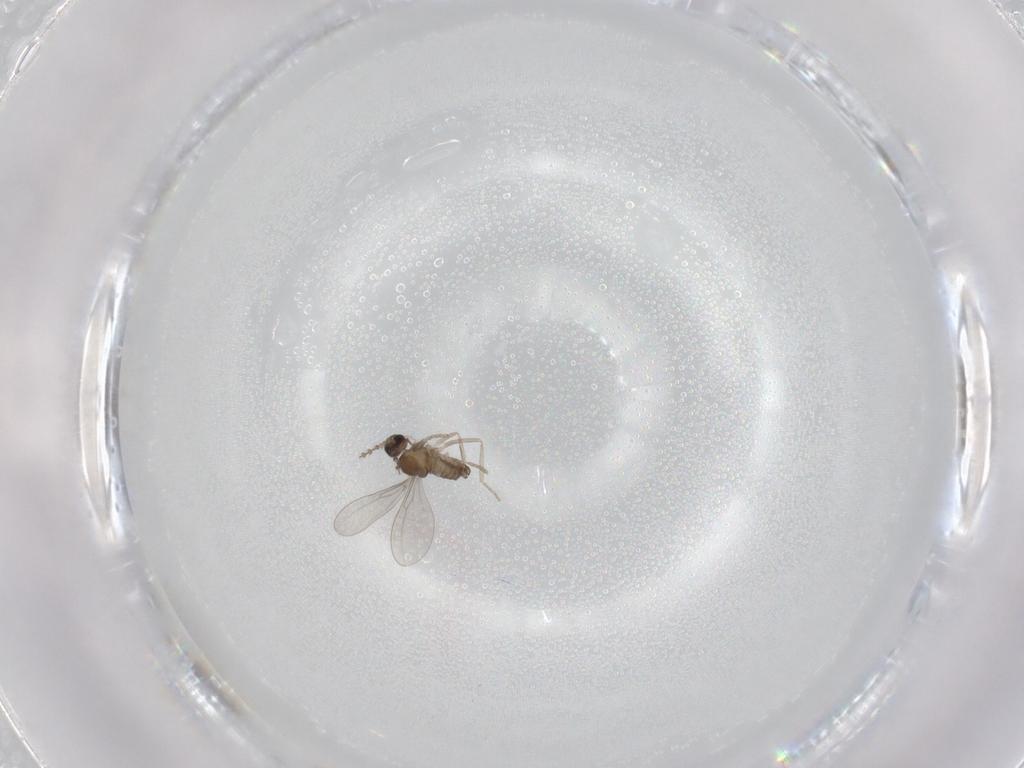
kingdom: Animalia
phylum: Arthropoda
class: Insecta
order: Diptera
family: Cecidomyiidae
